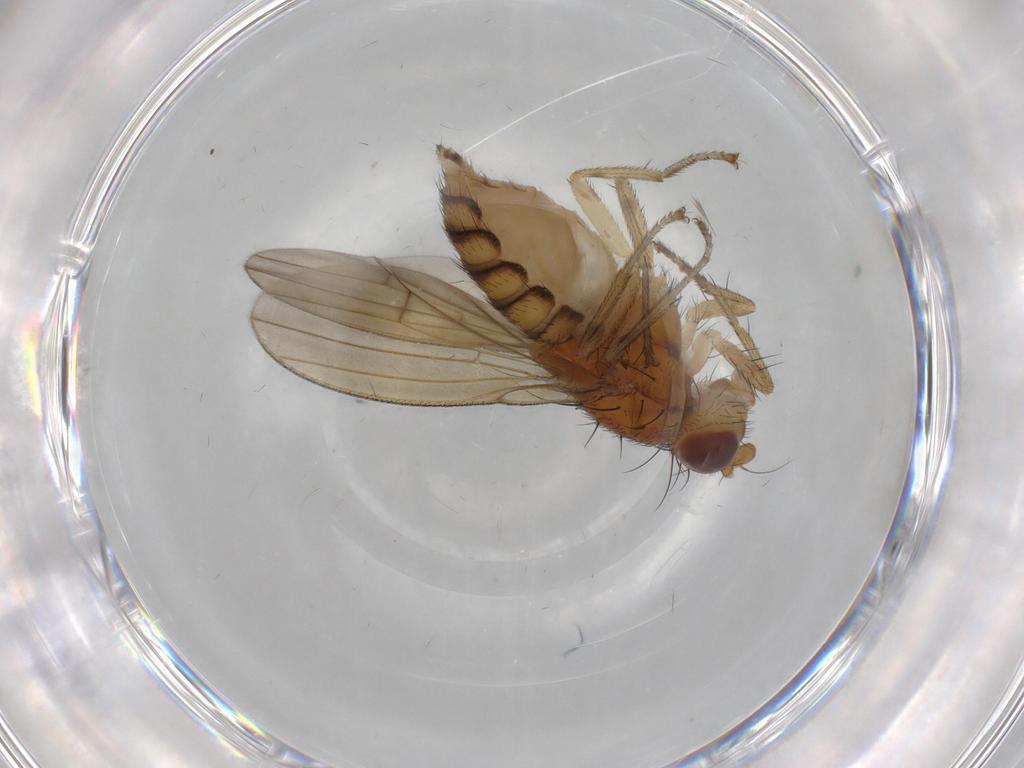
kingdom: Animalia
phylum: Arthropoda
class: Insecta
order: Diptera
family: Lauxaniidae
